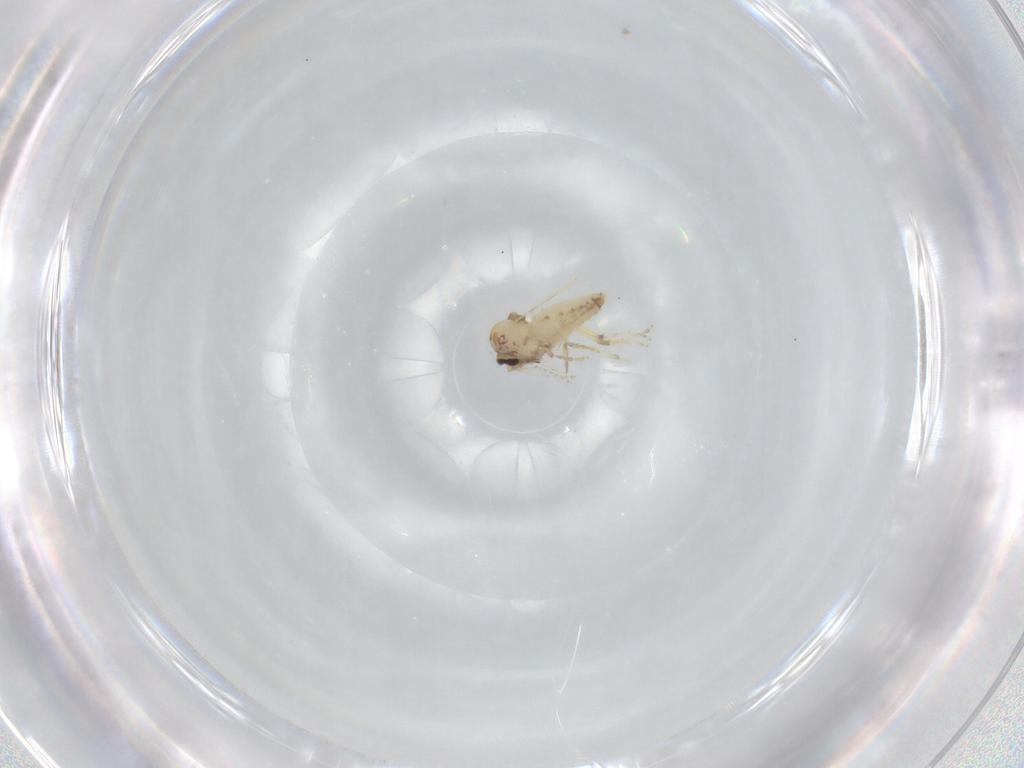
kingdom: Animalia
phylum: Arthropoda
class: Insecta
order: Diptera
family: Ceratopogonidae
